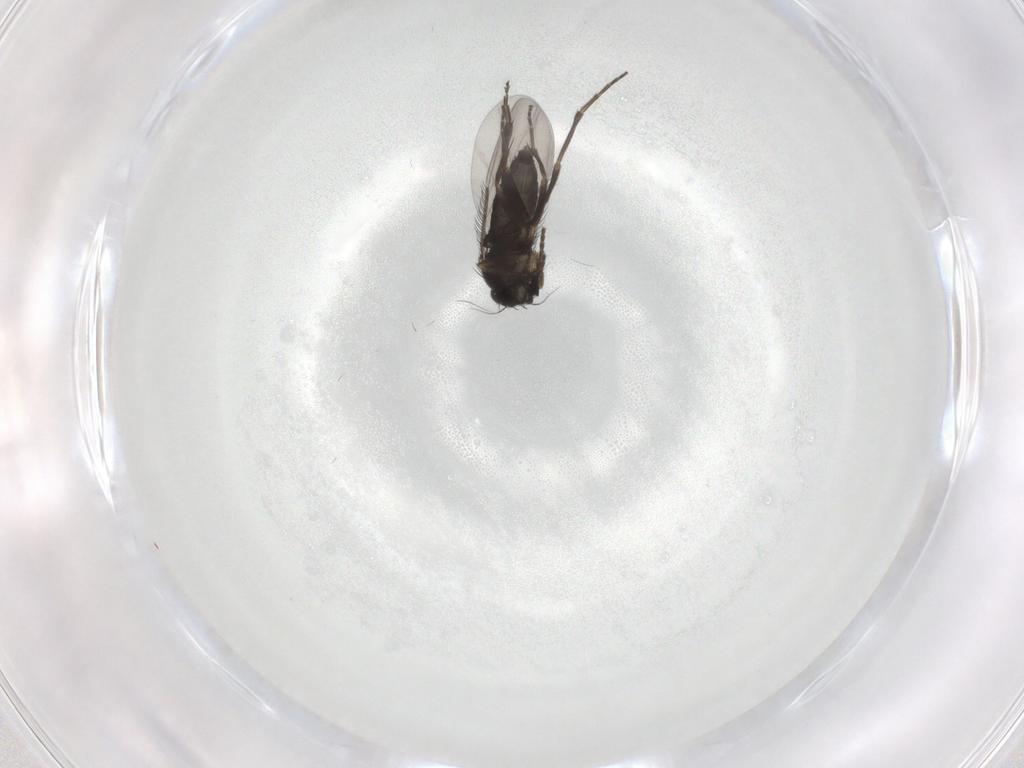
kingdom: Animalia
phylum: Arthropoda
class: Insecta
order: Diptera
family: Phoridae
